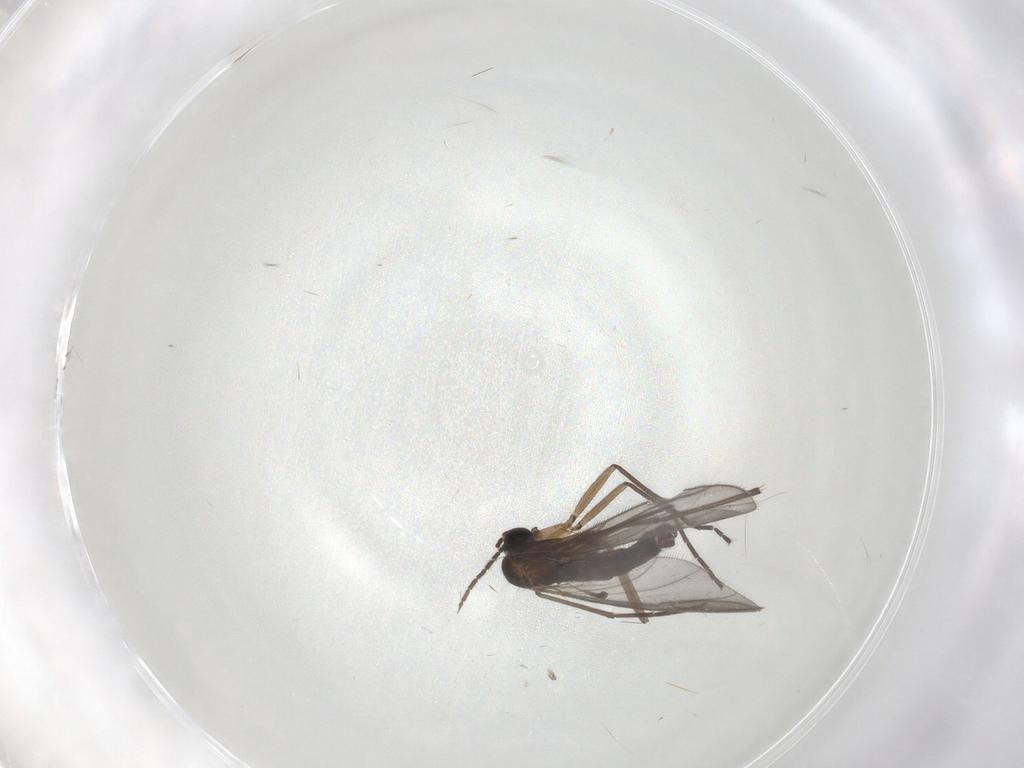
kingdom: Animalia
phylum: Arthropoda
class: Insecta
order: Diptera
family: Sciaridae
